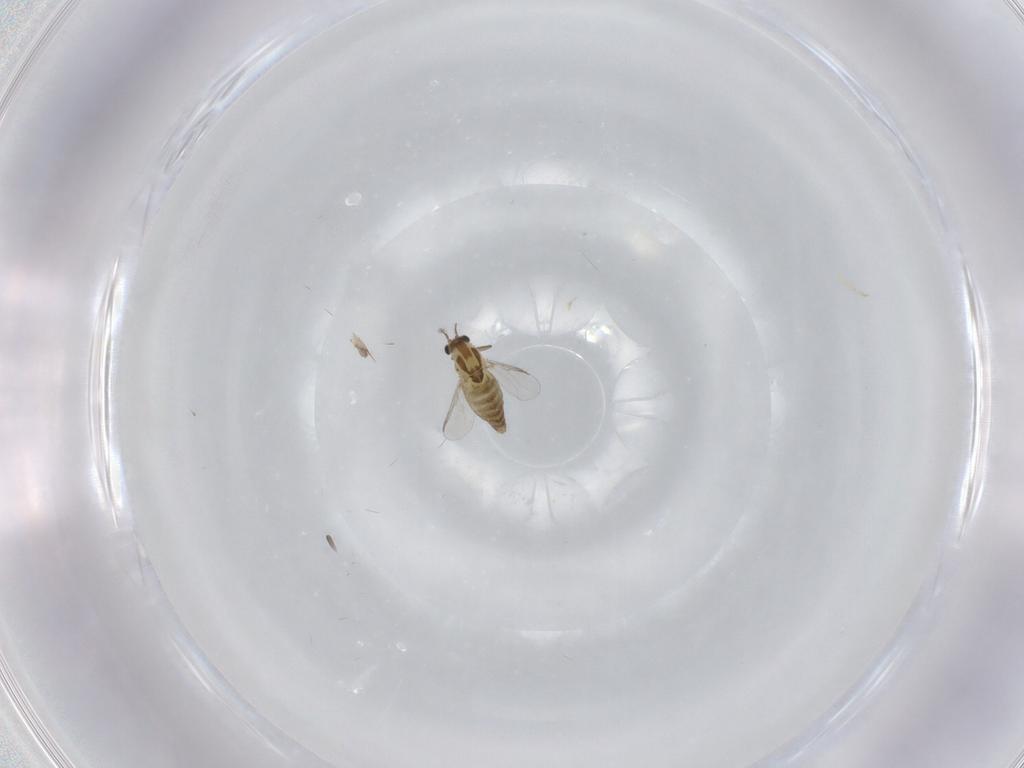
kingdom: Animalia
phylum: Arthropoda
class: Insecta
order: Diptera
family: Chironomidae
